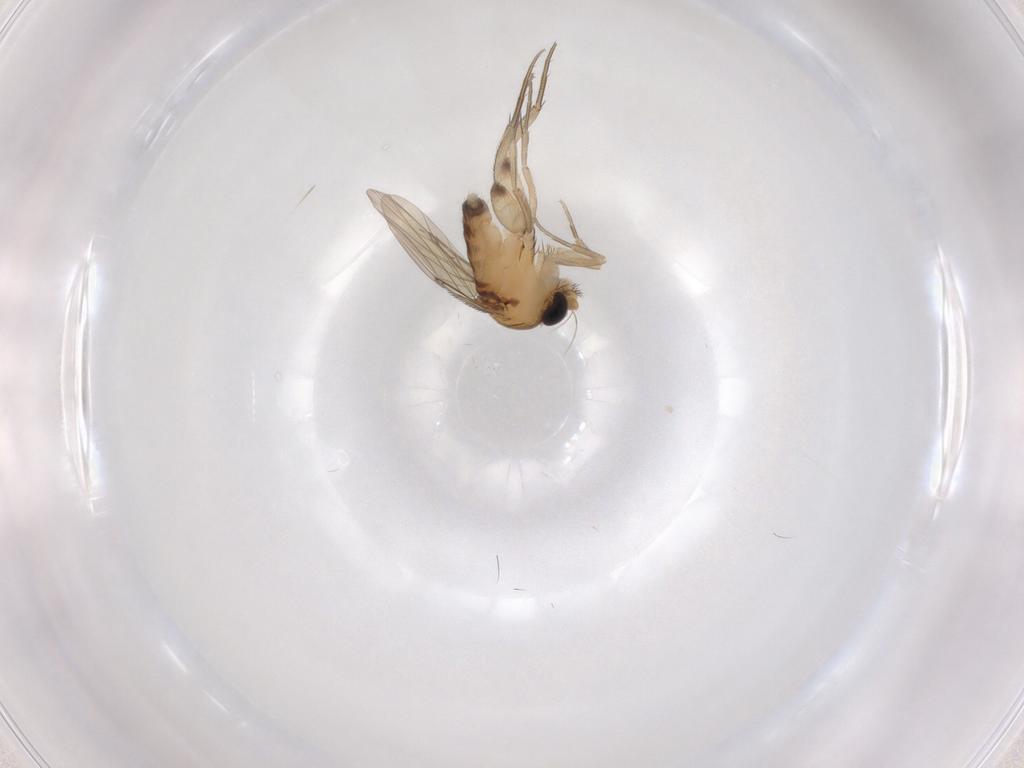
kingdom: Animalia
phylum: Arthropoda
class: Insecta
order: Diptera
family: Phoridae
